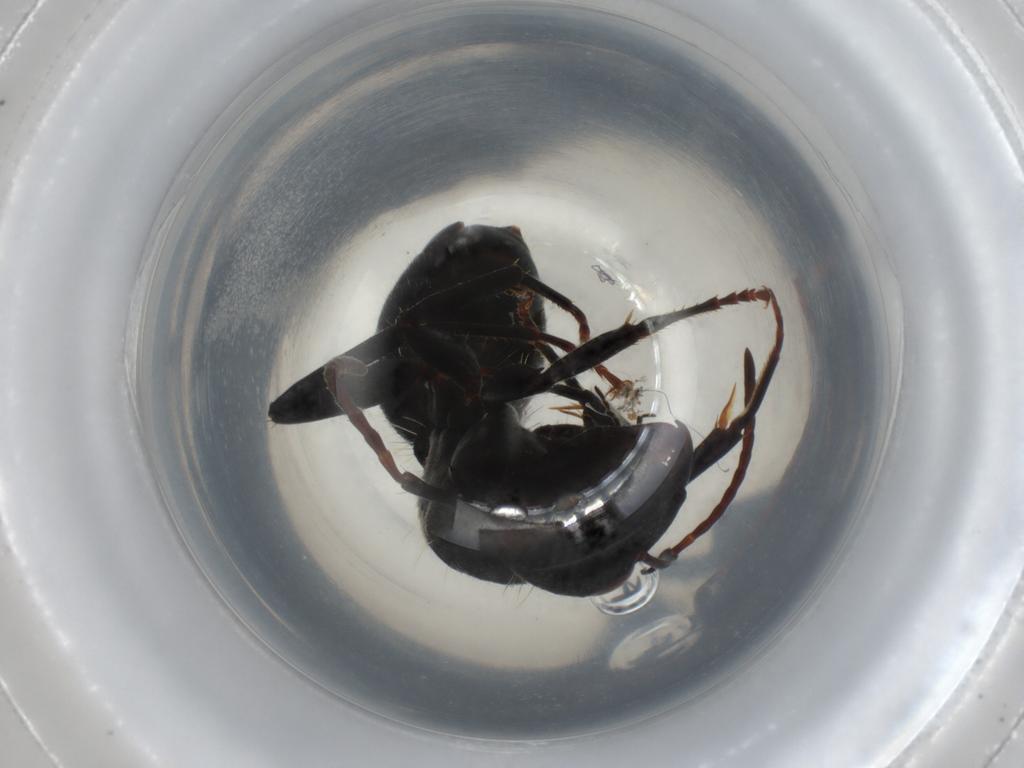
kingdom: Animalia
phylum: Arthropoda
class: Insecta
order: Hymenoptera
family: Formicidae
